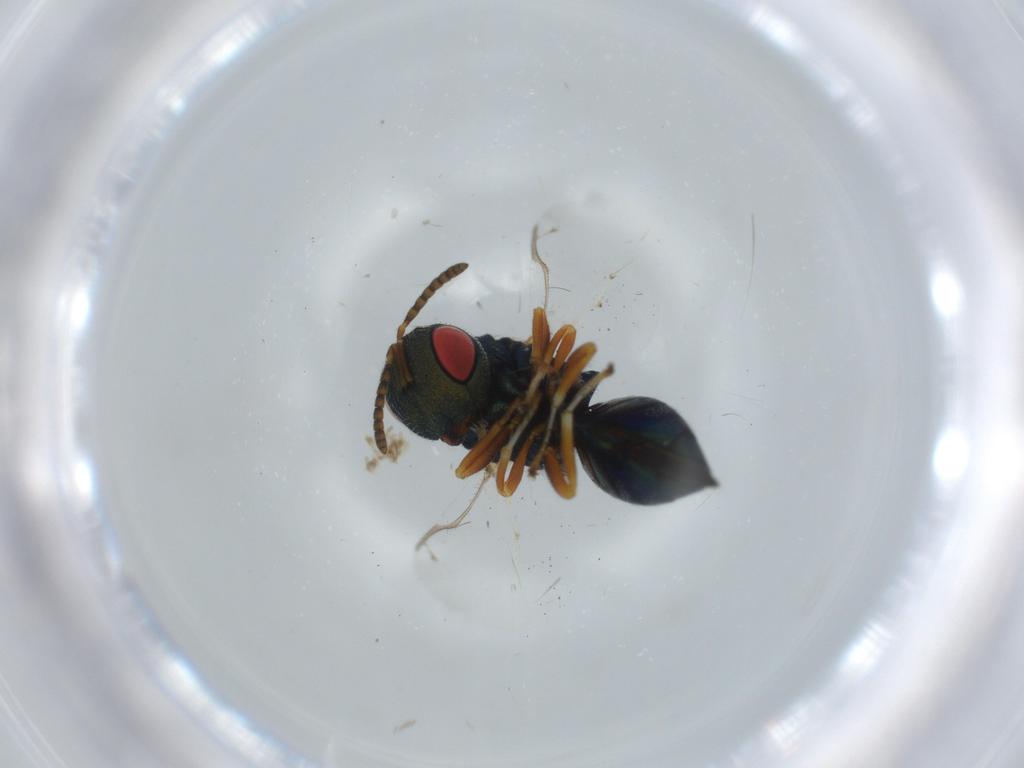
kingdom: Animalia
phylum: Arthropoda
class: Insecta
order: Hymenoptera
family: Pteromalidae
